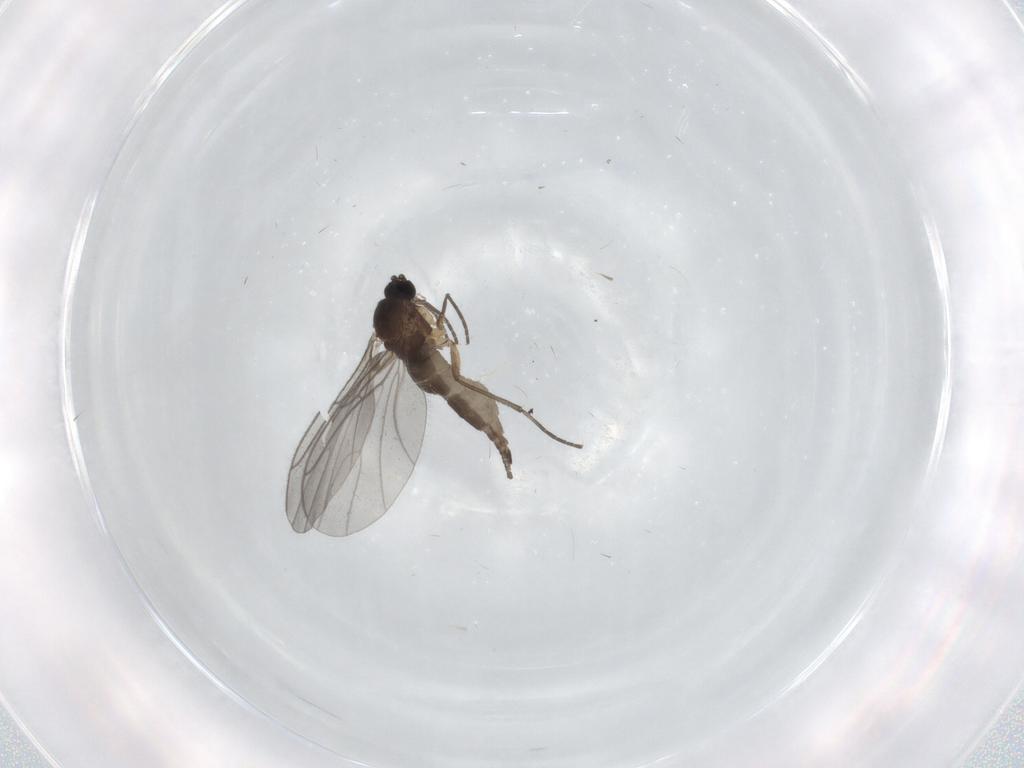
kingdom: Animalia
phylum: Arthropoda
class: Insecta
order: Diptera
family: Sciaridae
